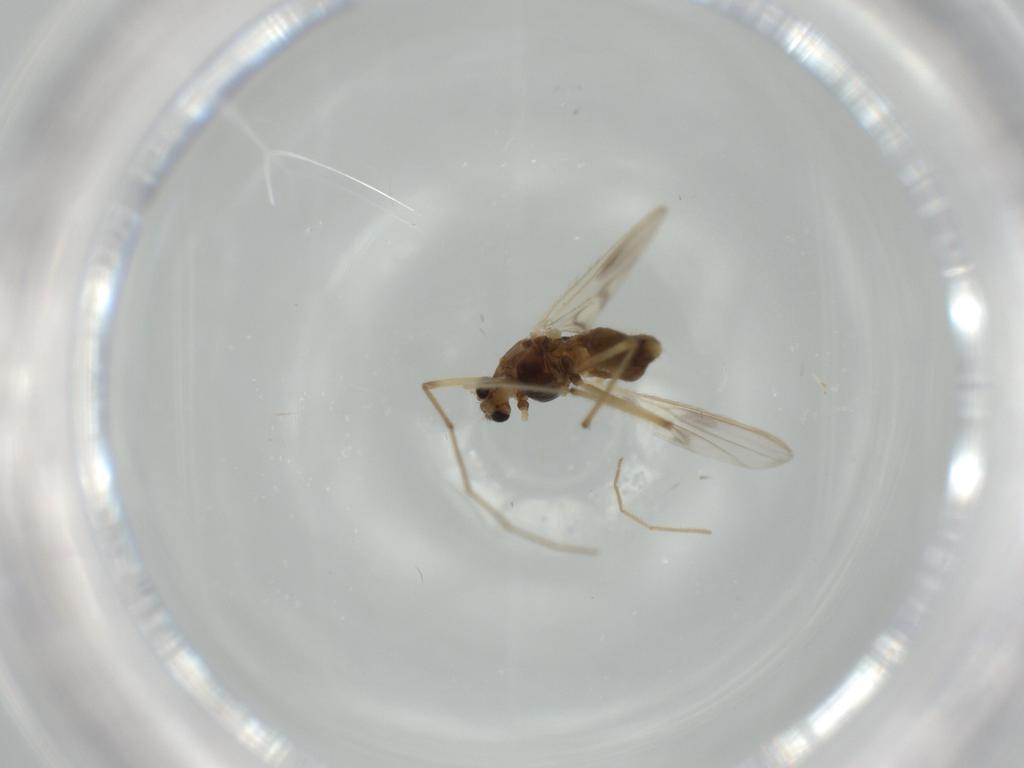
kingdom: Animalia
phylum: Arthropoda
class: Insecta
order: Diptera
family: Chironomidae
